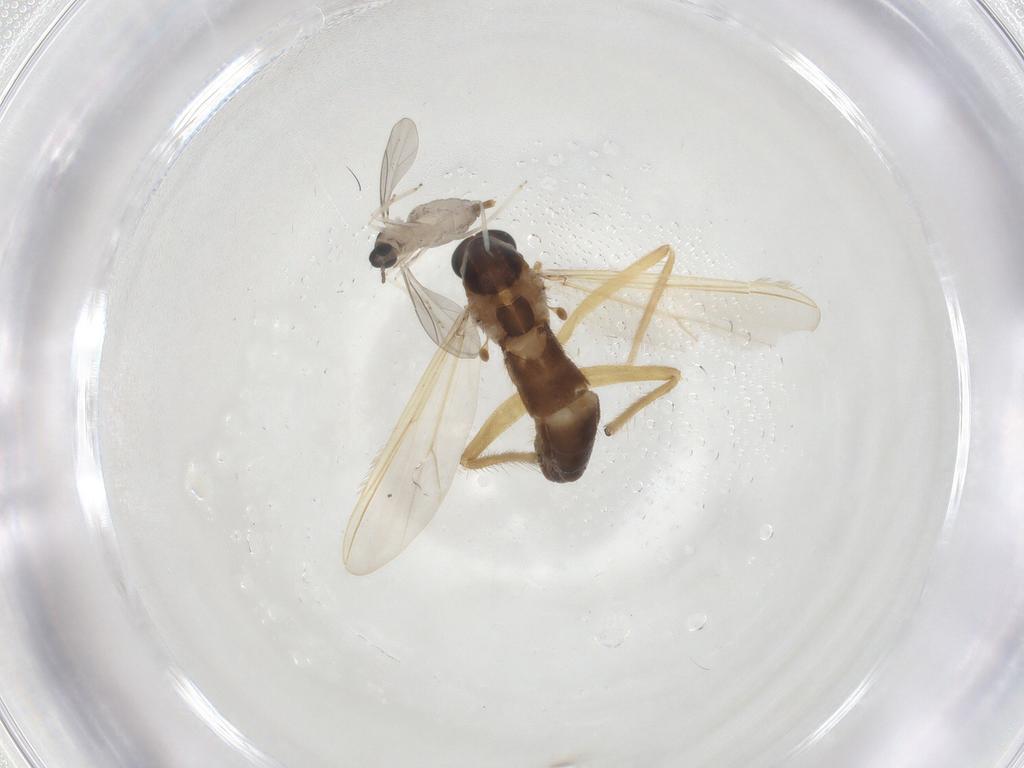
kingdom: Animalia
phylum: Arthropoda
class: Insecta
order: Diptera
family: Chironomidae
